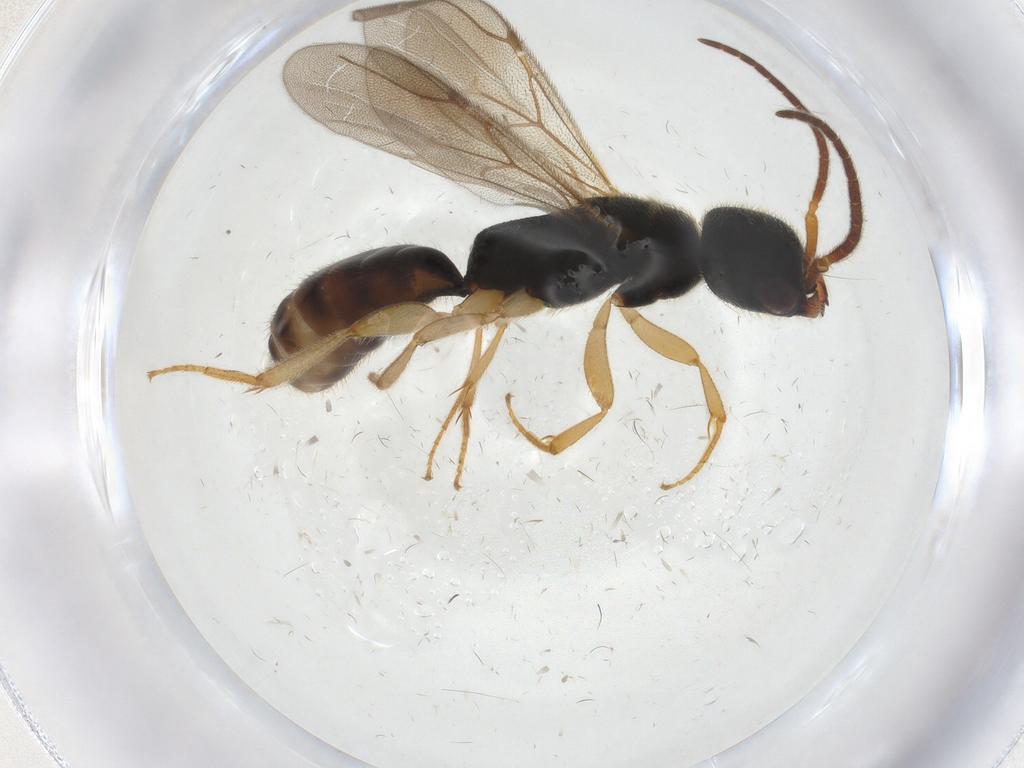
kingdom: Animalia
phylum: Arthropoda
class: Insecta
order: Hymenoptera
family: Bethylidae
